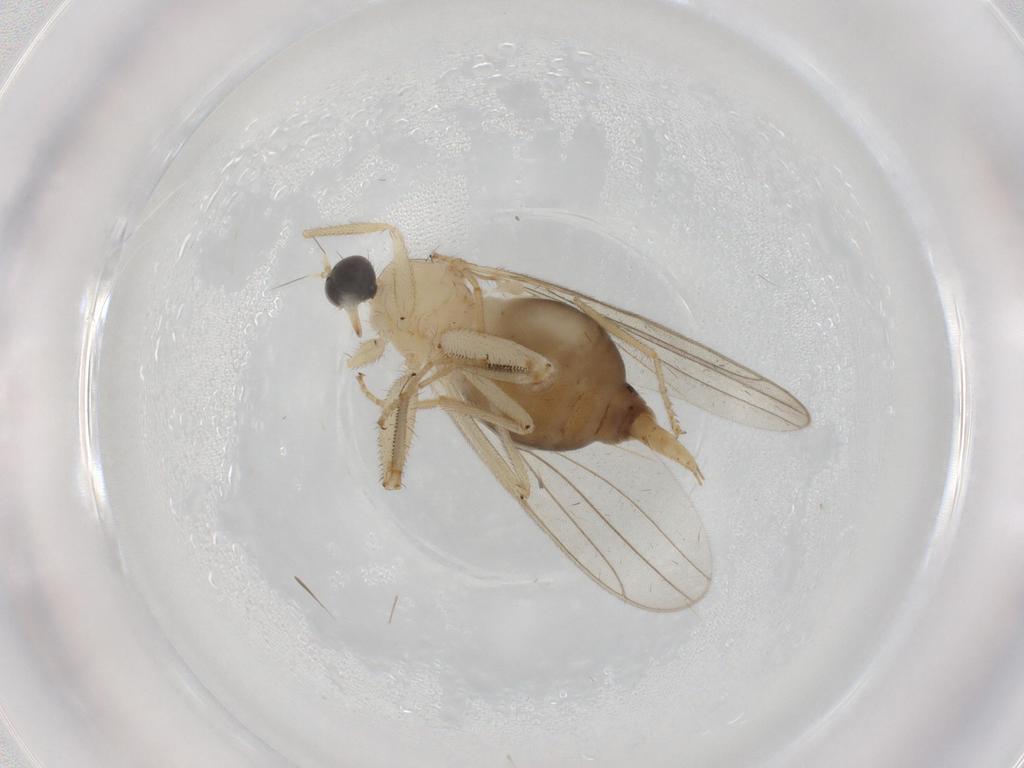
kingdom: Animalia
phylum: Arthropoda
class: Insecta
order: Diptera
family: Hybotidae
